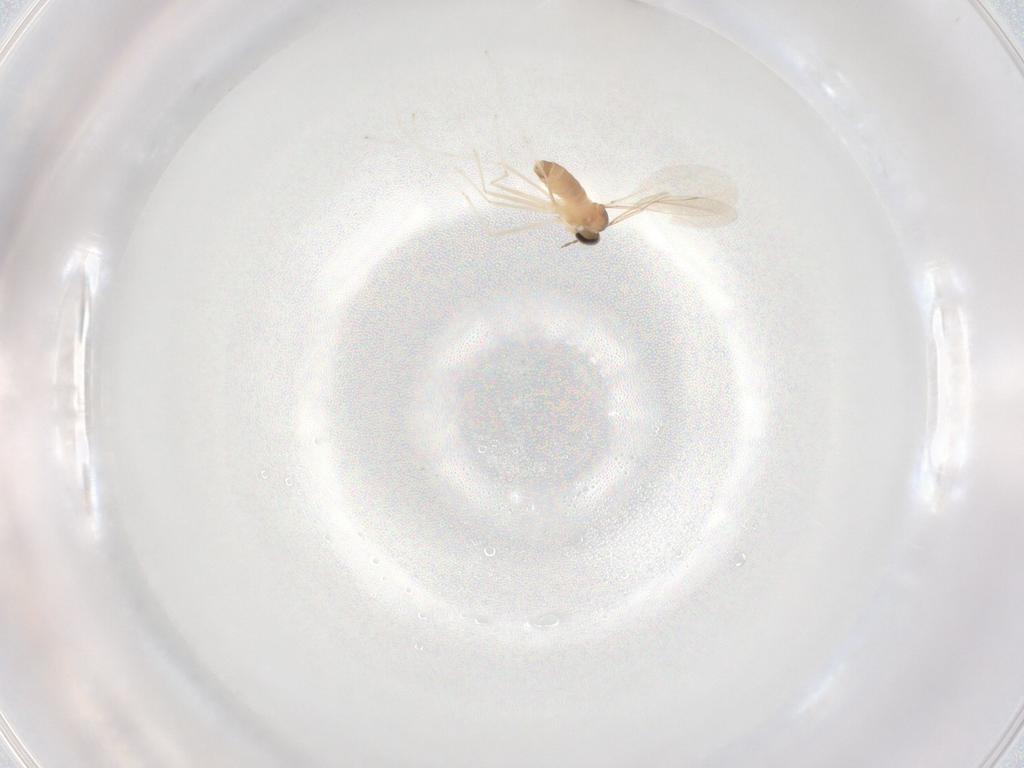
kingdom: Animalia
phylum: Arthropoda
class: Insecta
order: Diptera
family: Cecidomyiidae
